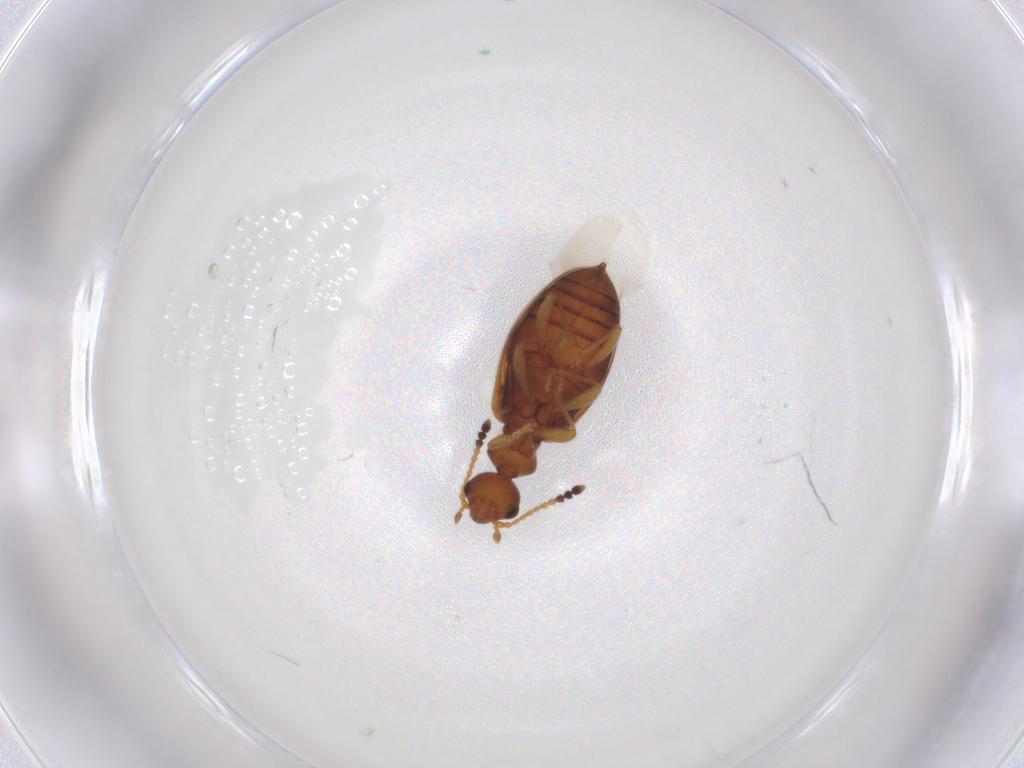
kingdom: Animalia
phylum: Arthropoda
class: Insecta
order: Coleoptera
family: Anthicidae
